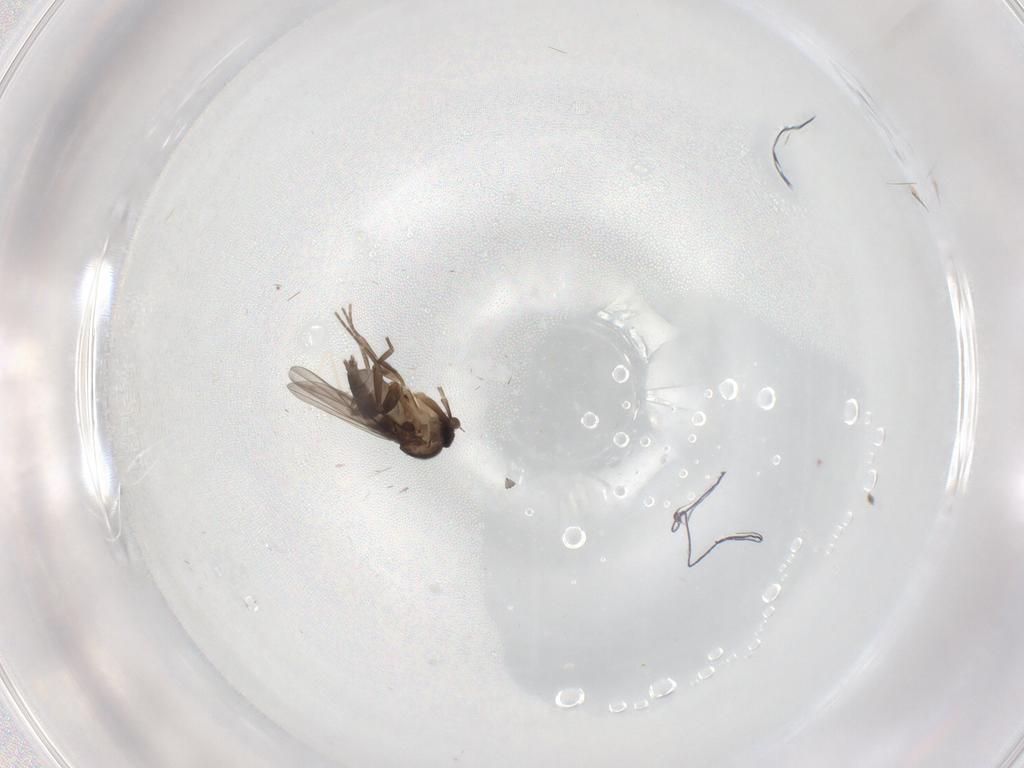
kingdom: Animalia
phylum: Arthropoda
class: Insecta
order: Diptera
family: Cecidomyiidae
